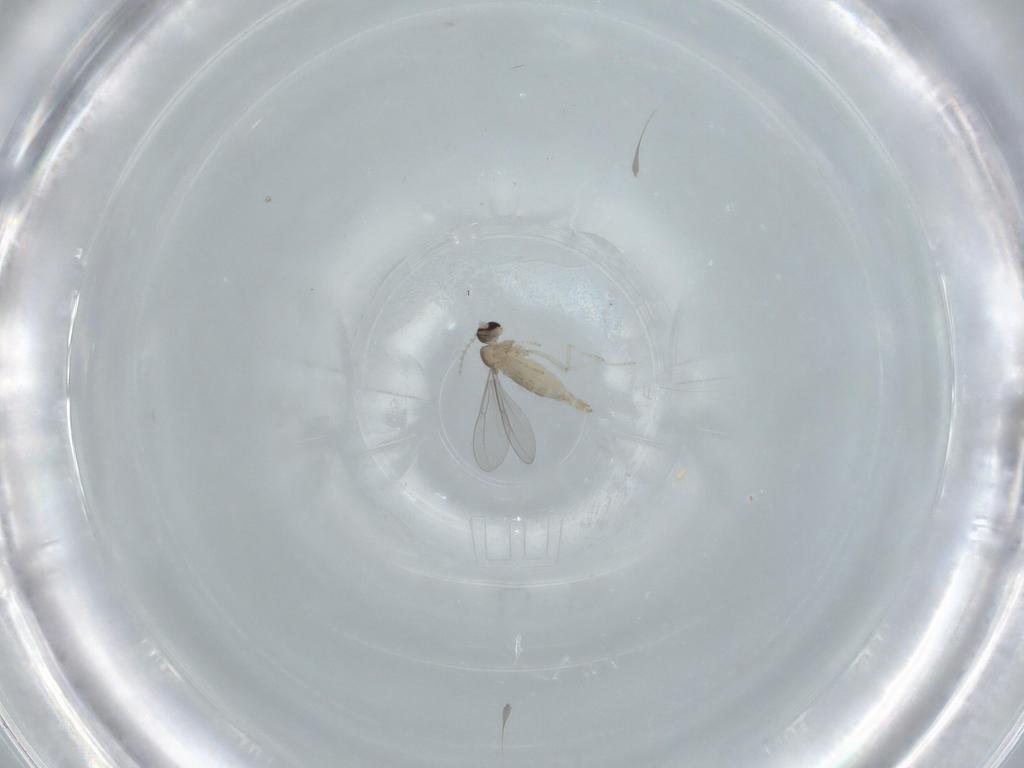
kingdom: Animalia
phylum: Arthropoda
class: Insecta
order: Diptera
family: Cecidomyiidae
